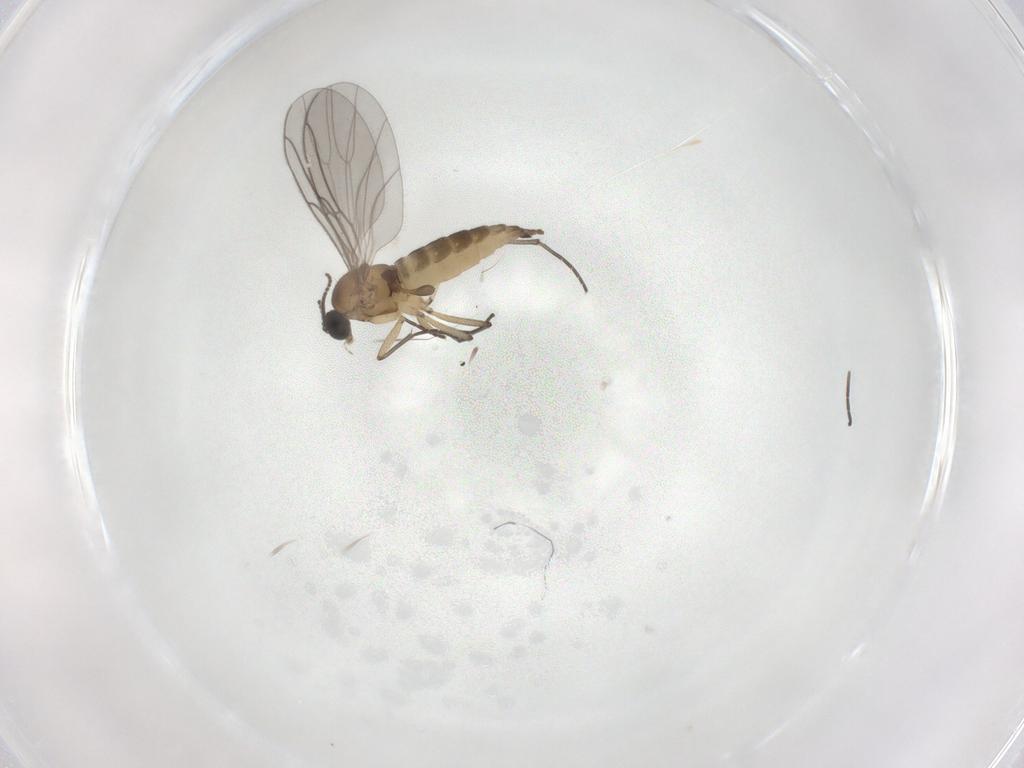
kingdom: Animalia
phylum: Arthropoda
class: Insecta
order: Diptera
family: Sciaridae
